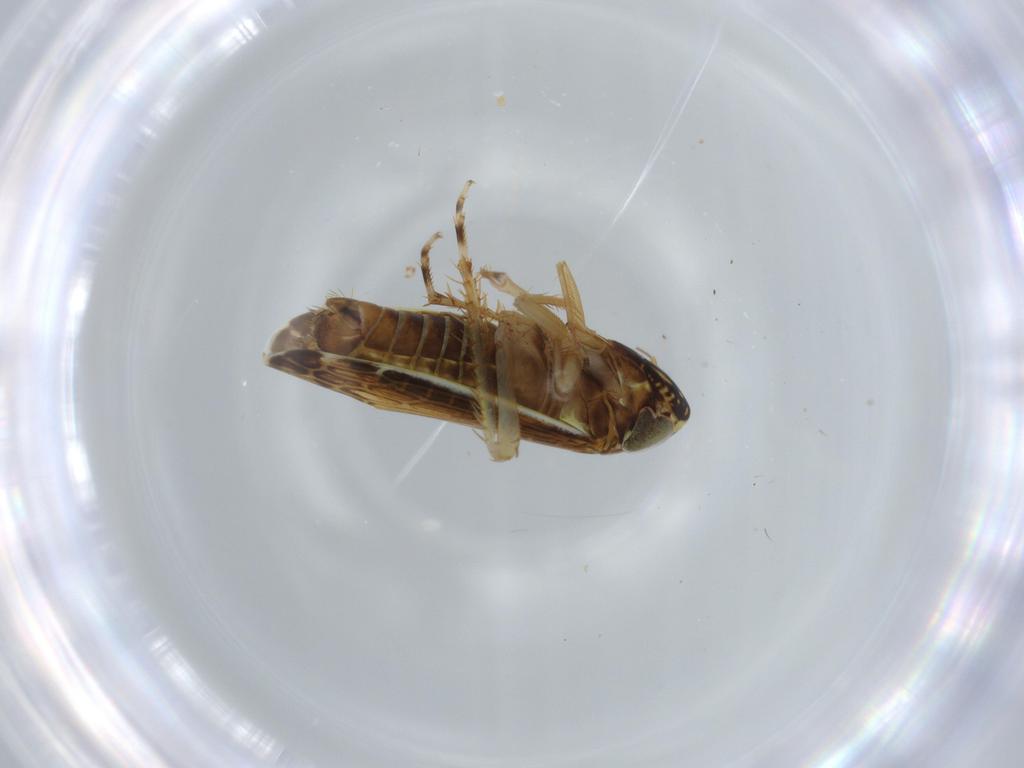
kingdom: Animalia
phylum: Arthropoda
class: Insecta
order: Hemiptera
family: Cicadellidae
